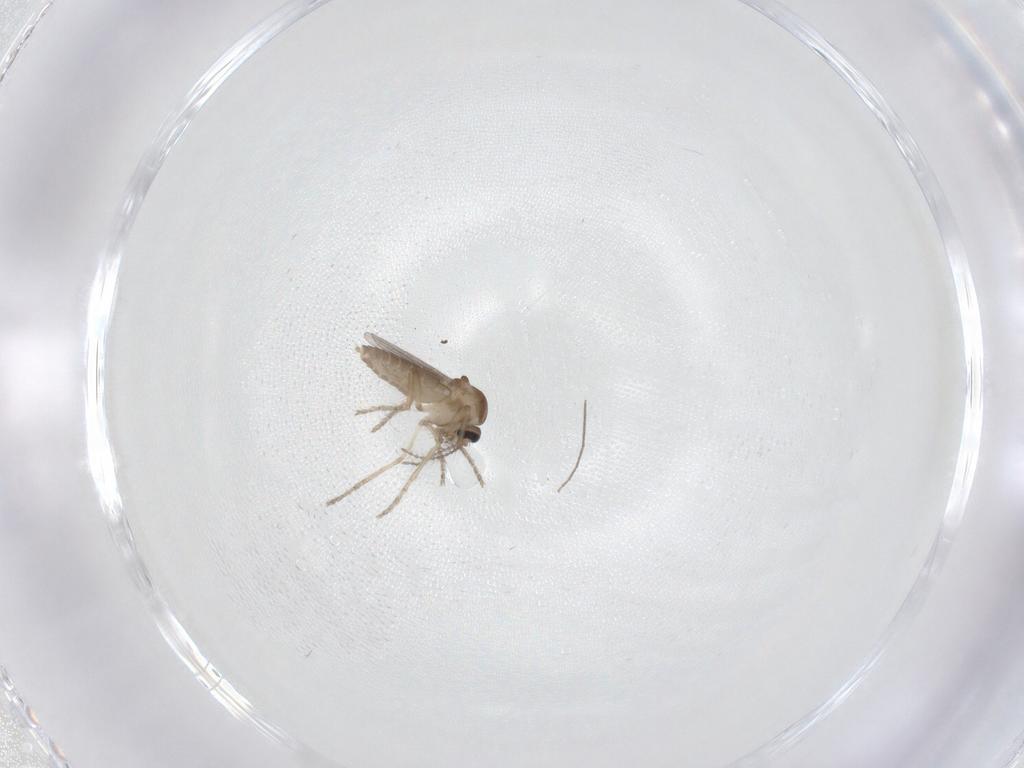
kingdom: Animalia
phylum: Arthropoda
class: Insecta
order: Diptera
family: Ceratopogonidae
